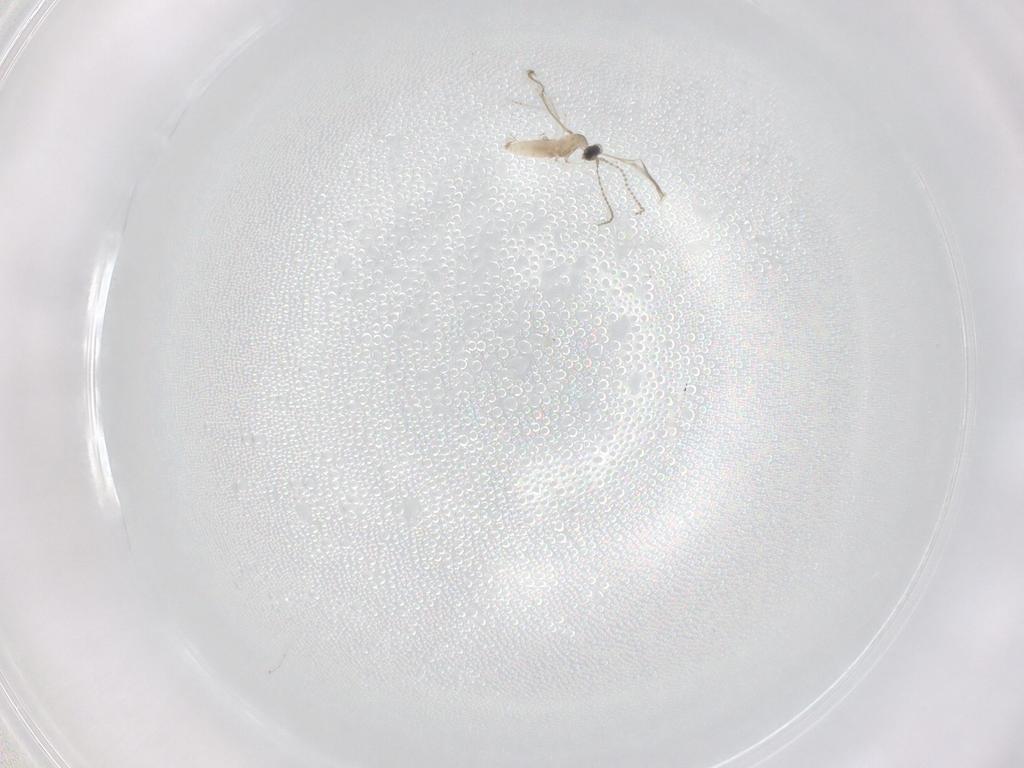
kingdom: Animalia
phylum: Arthropoda
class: Insecta
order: Diptera
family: Cecidomyiidae
